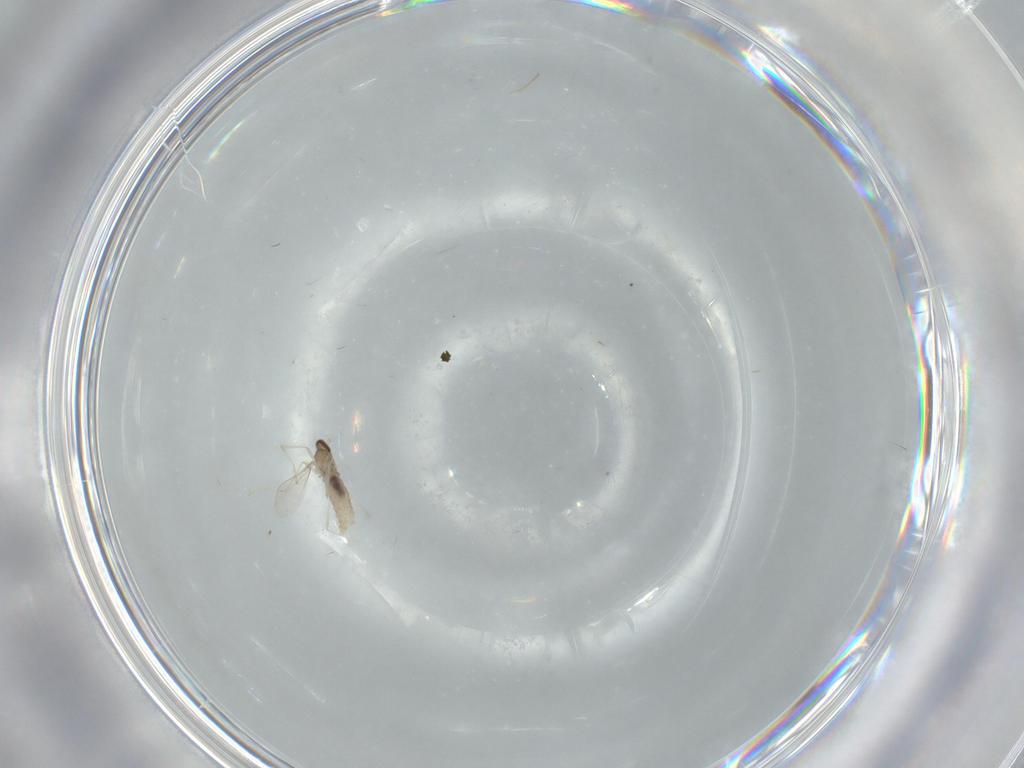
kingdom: Animalia
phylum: Arthropoda
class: Insecta
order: Diptera
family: Cecidomyiidae
